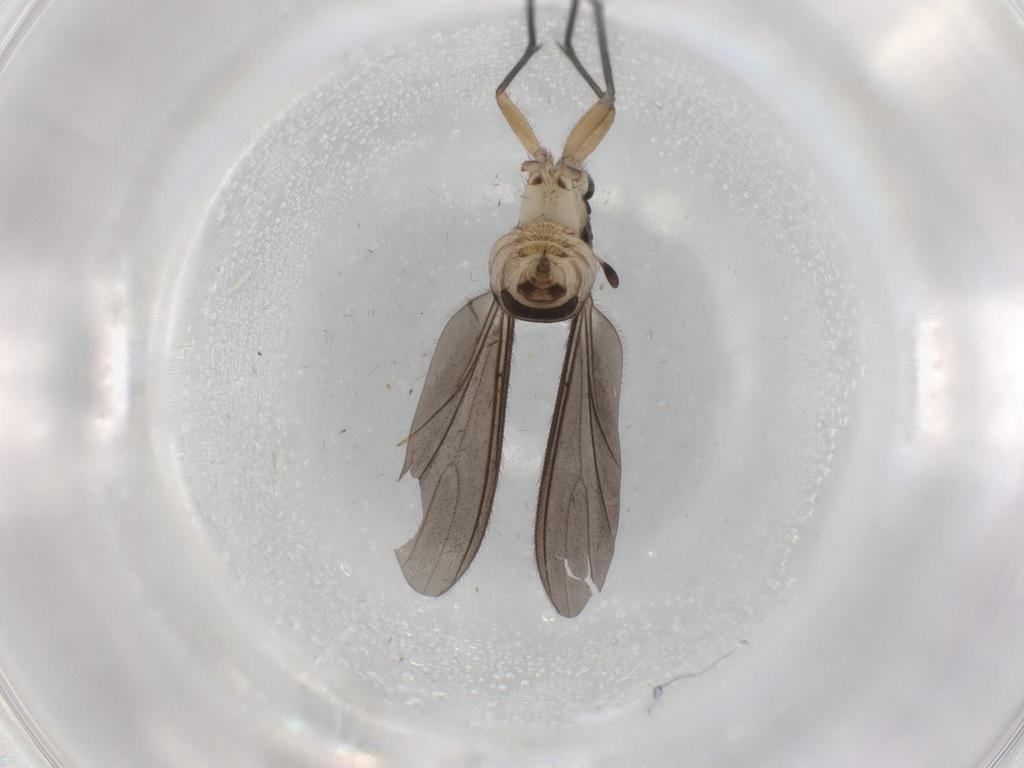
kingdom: Animalia
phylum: Arthropoda
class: Insecta
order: Diptera
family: Sciaridae
